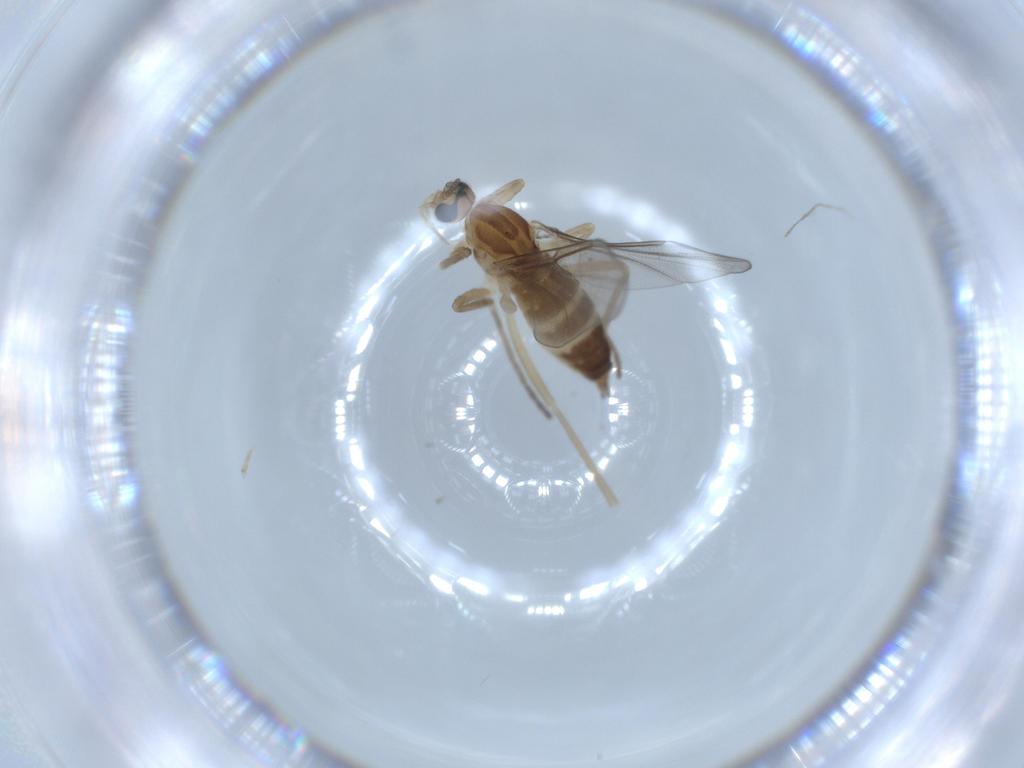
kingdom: Animalia
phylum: Arthropoda
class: Insecta
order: Diptera
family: Cecidomyiidae
